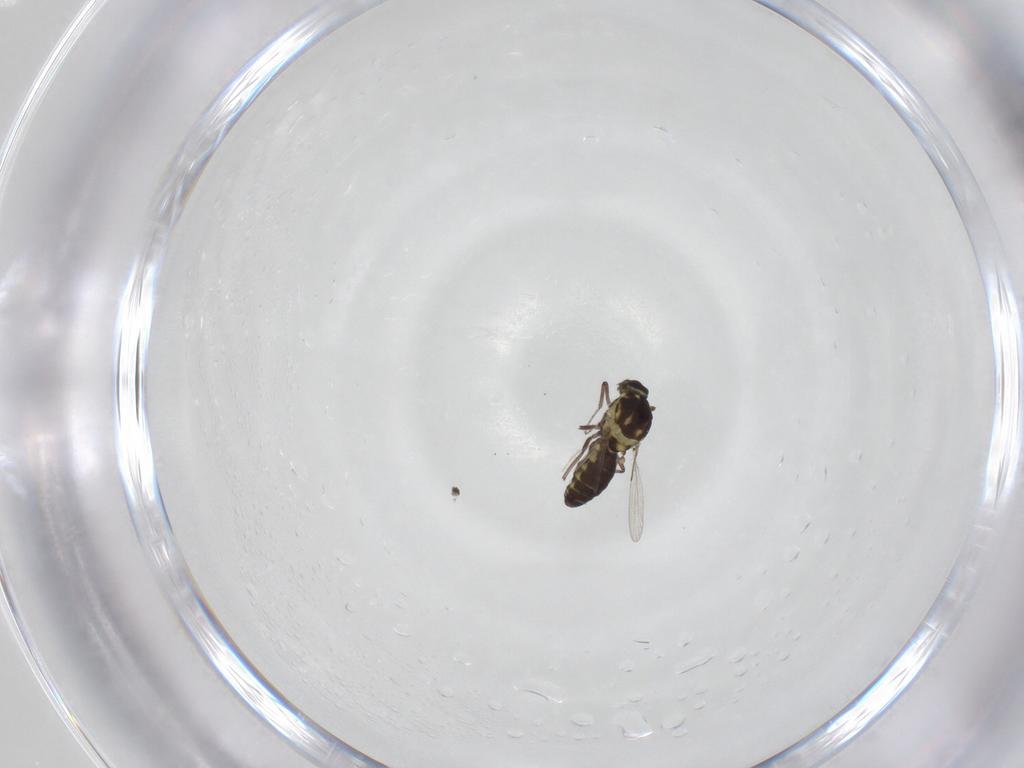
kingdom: Animalia
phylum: Arthropoda
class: Insecta
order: Diptera
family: Ceratopogonidae
